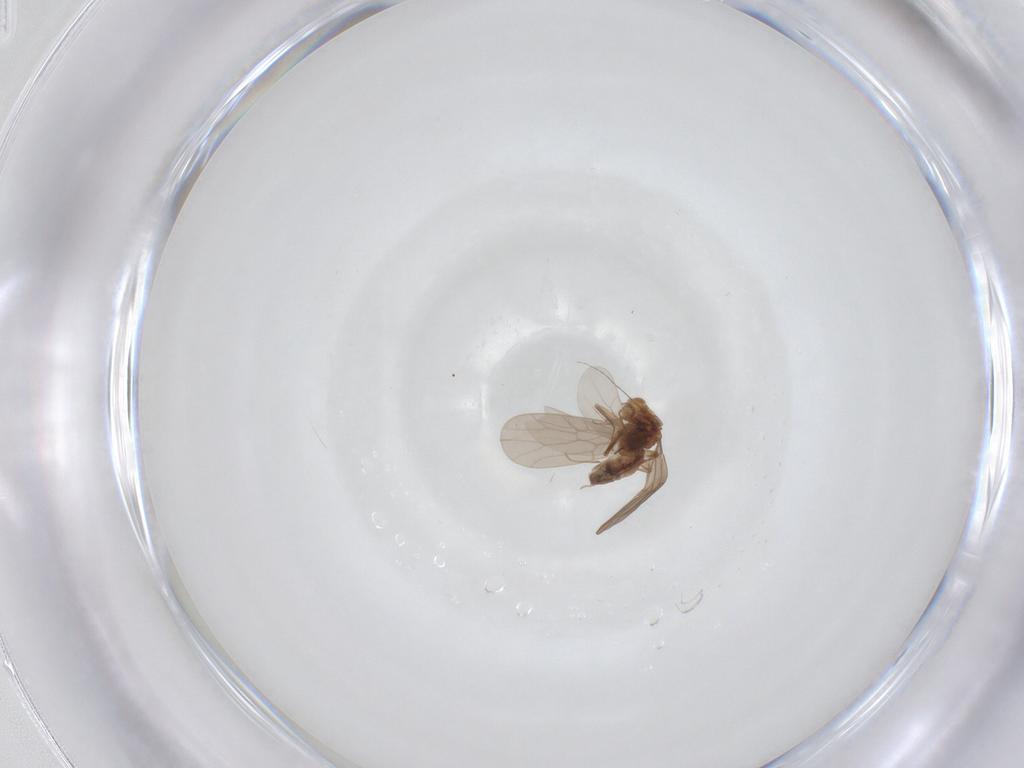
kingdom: Animalia
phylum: Arthropoda
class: Insecta
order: Psocodea
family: Lepidopsocidae
